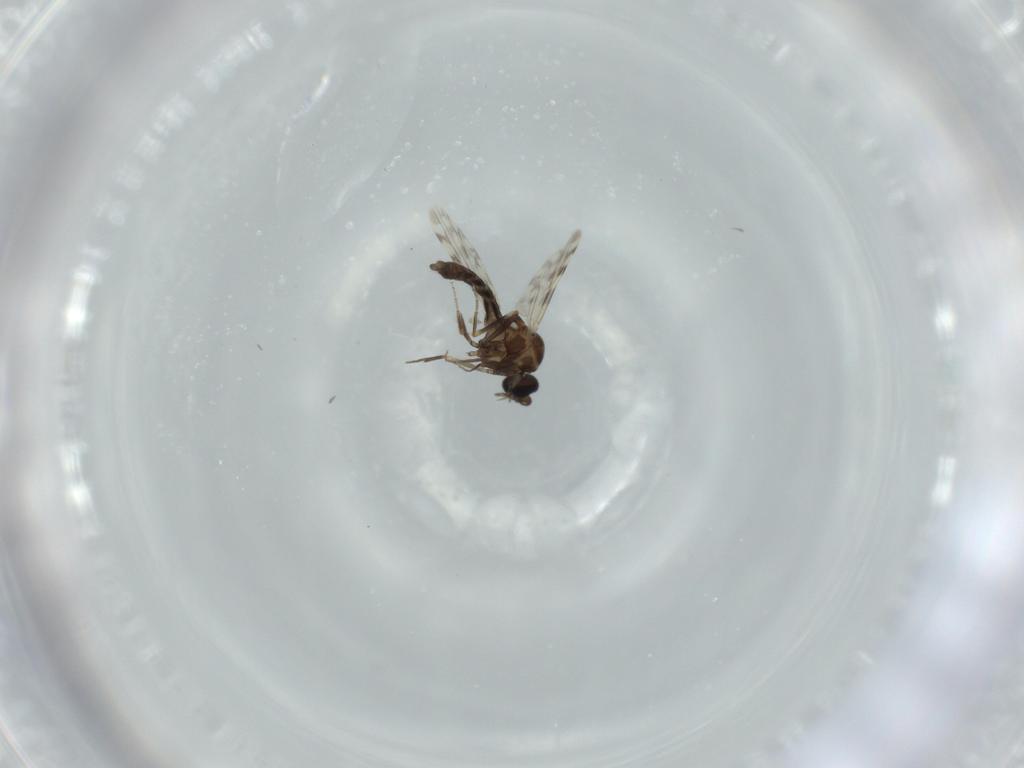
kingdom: Animalia
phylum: Arthropoda
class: Insecta
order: Diptera
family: Ceratopogonidae
